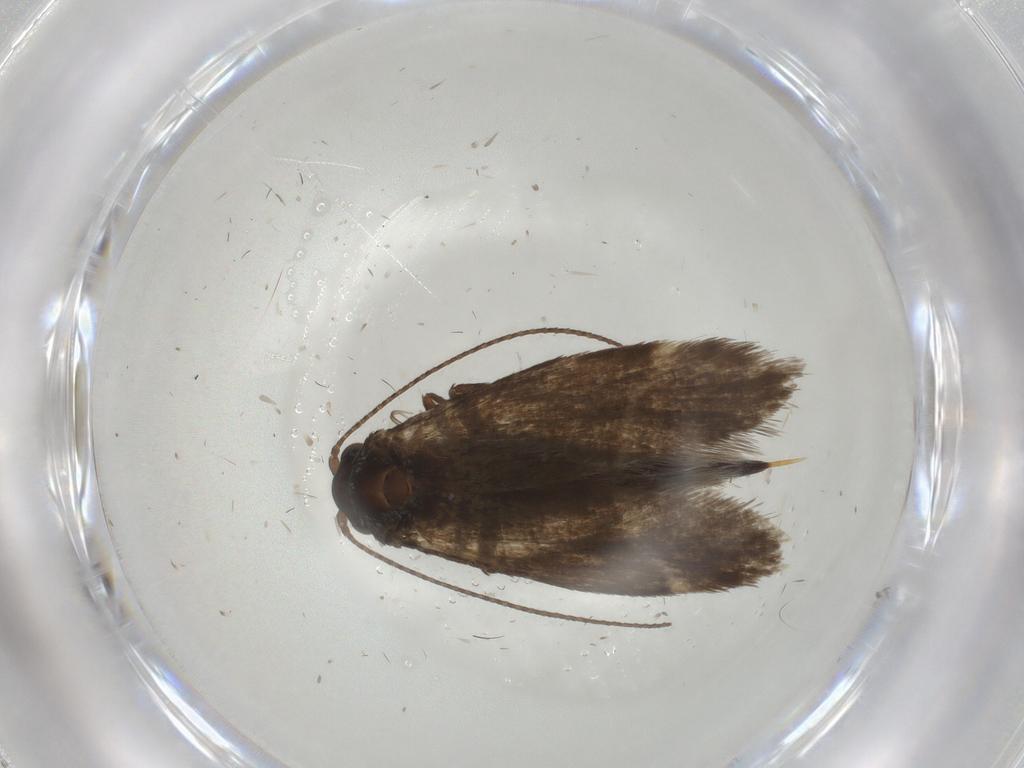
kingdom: Animalia
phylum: Arthropoda
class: Insecta
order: Lepidoptera
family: Adelidae
